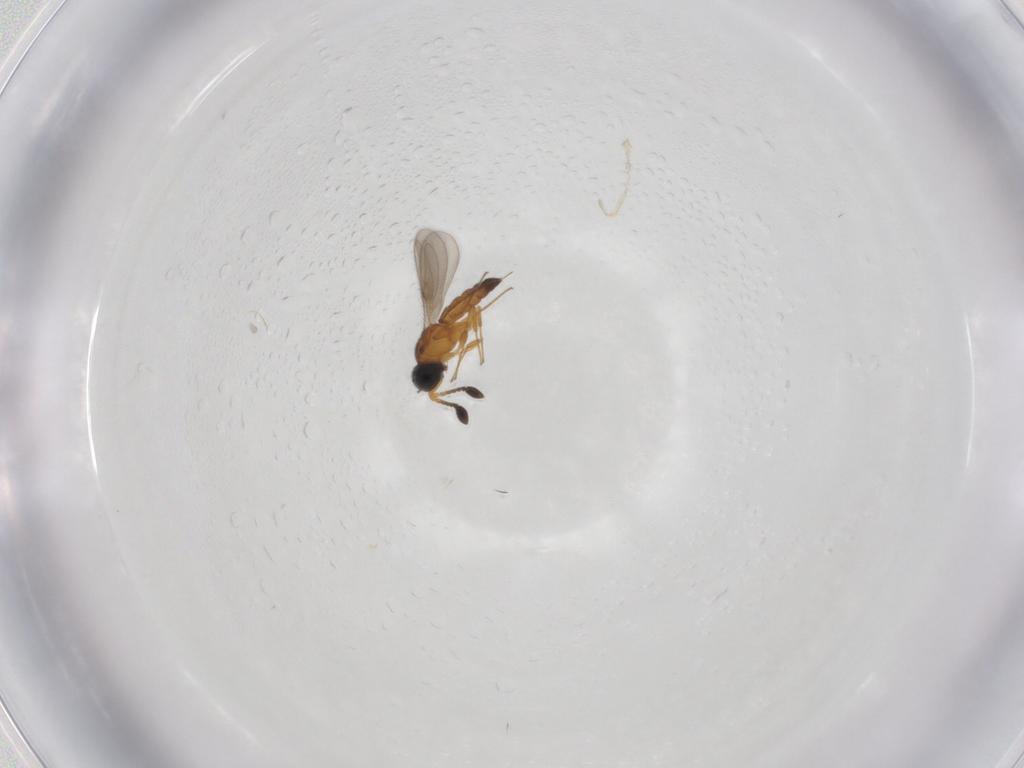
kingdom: Animalia
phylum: Arthropoda
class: Insecta
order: Hymenoptera
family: Scelionidae
